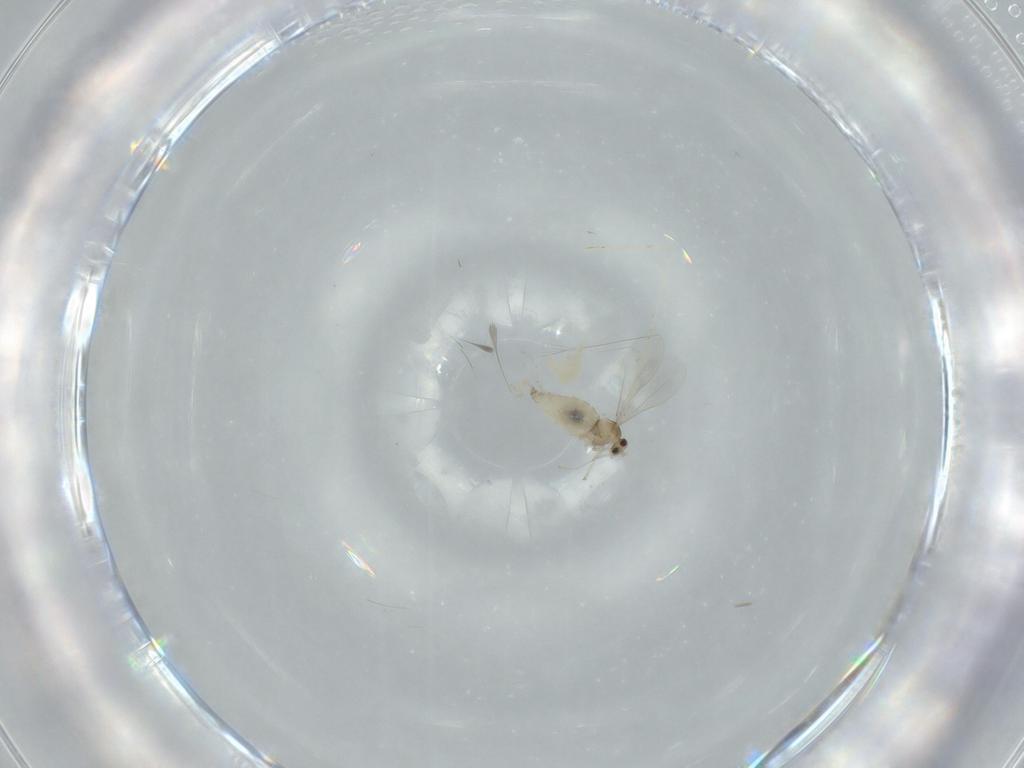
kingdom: Animalia
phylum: Arthropoda
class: Insecta
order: Diptera
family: Cecidomyiidae
